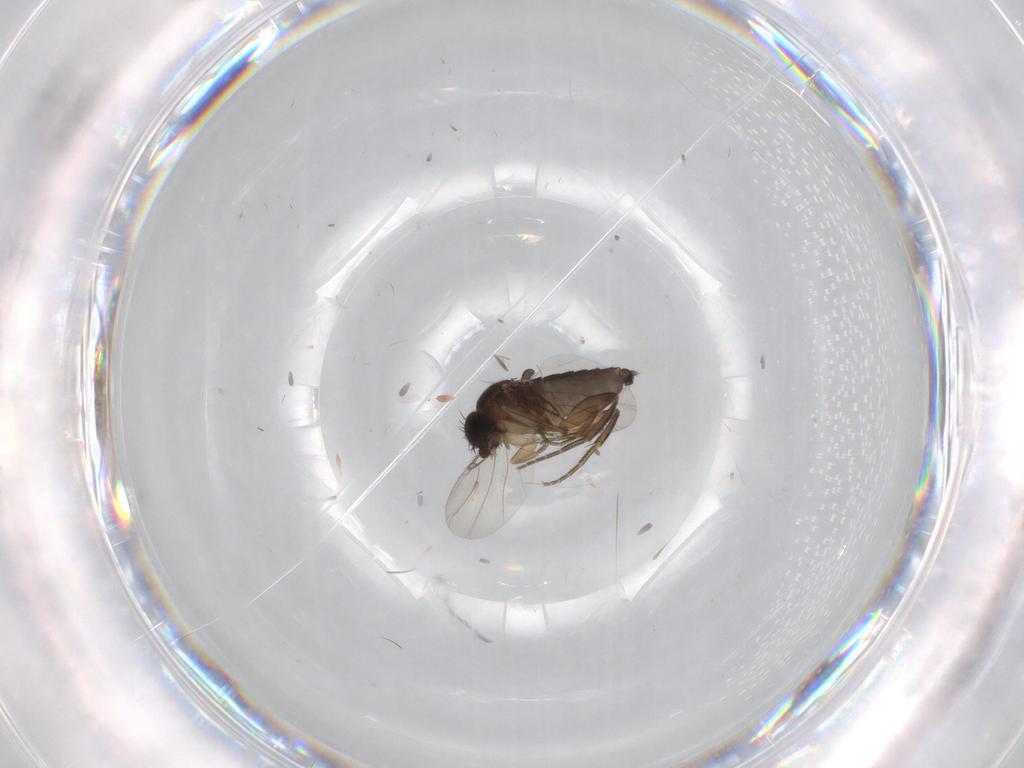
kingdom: Animalia
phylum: Arthropoda
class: Insecta
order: Diptera
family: Phoridae
